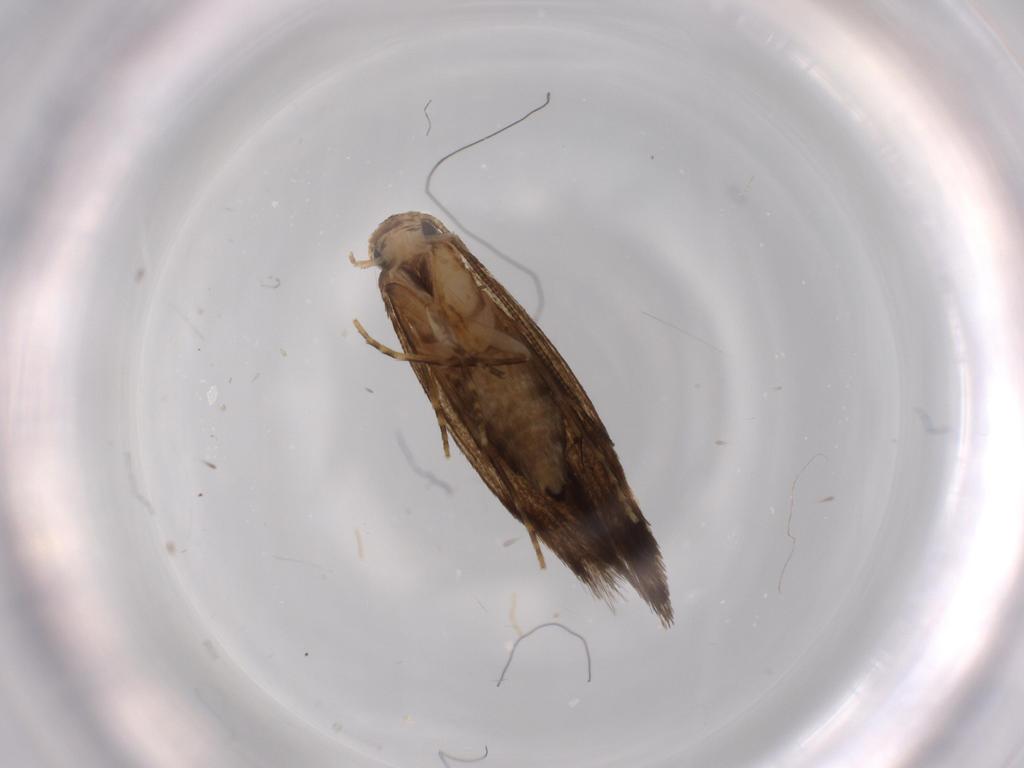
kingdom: Animalia
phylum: Arthropoda
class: Insecta
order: Lepidoptera
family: Tineidae
